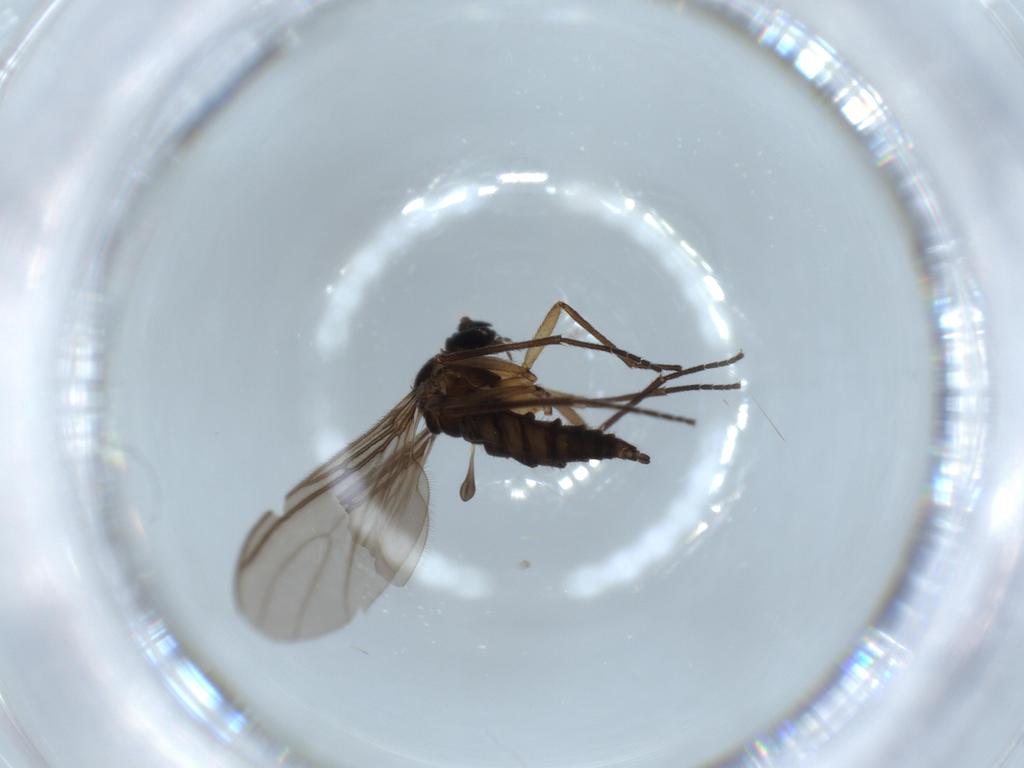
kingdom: Animalia
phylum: Arthropoda
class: Insecta
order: Diptera
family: Sciaridae
